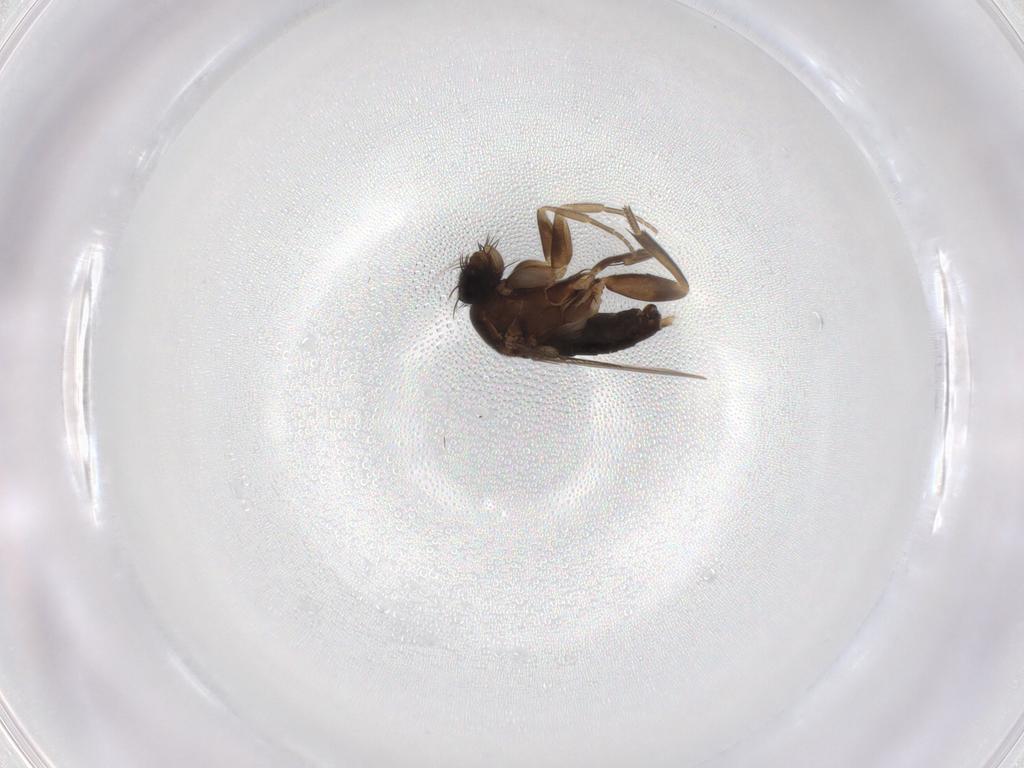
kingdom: Animalia
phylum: Arthropoda
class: Insecta
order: Diptera
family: Phoridae
